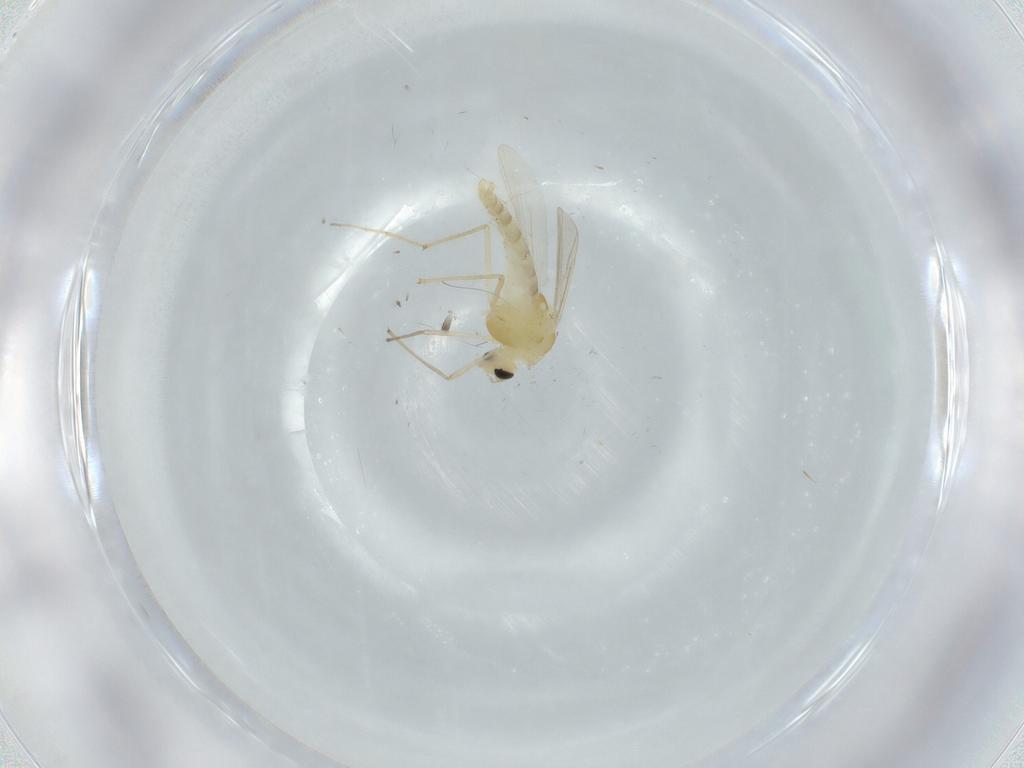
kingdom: Animalia
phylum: Arthropoda
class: Insecta
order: Diptera
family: Chironomidae
